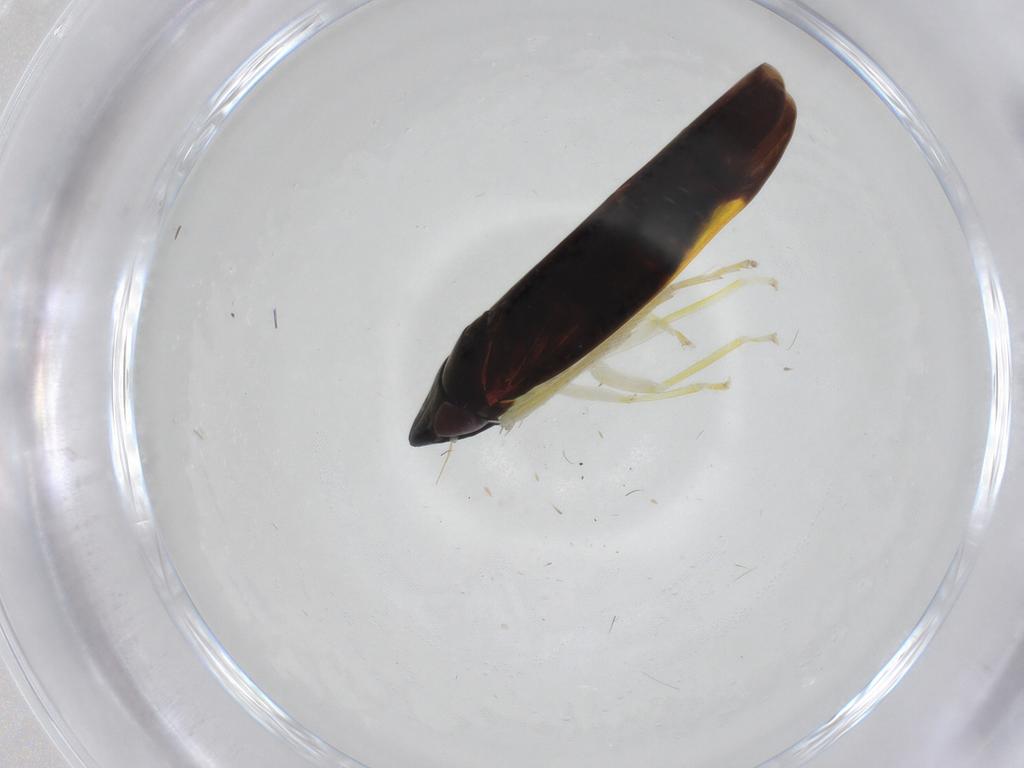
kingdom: Animalia
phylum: Arthropoda
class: Insecta
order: Hemiptera
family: Cicadellidae
